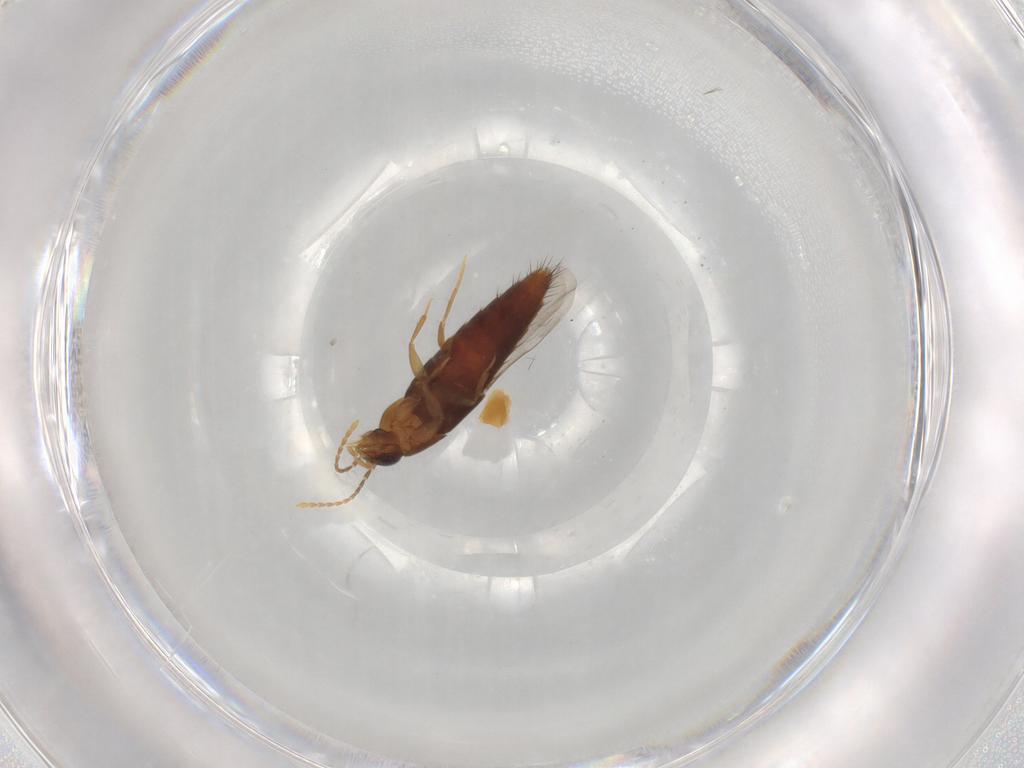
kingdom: Animalia
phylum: Arthropoda
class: Insecta
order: Coleoptera
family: Staphylinidae
